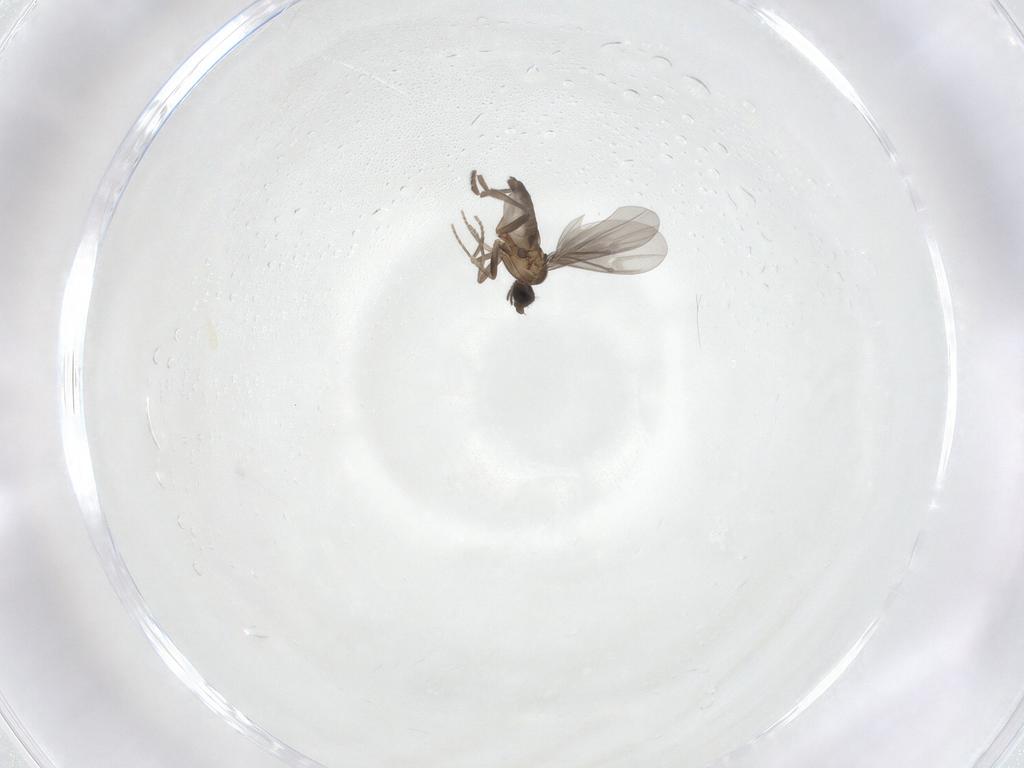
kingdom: Animalia
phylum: Arthropoda
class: Insecta
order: Diptera
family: Phoridae
